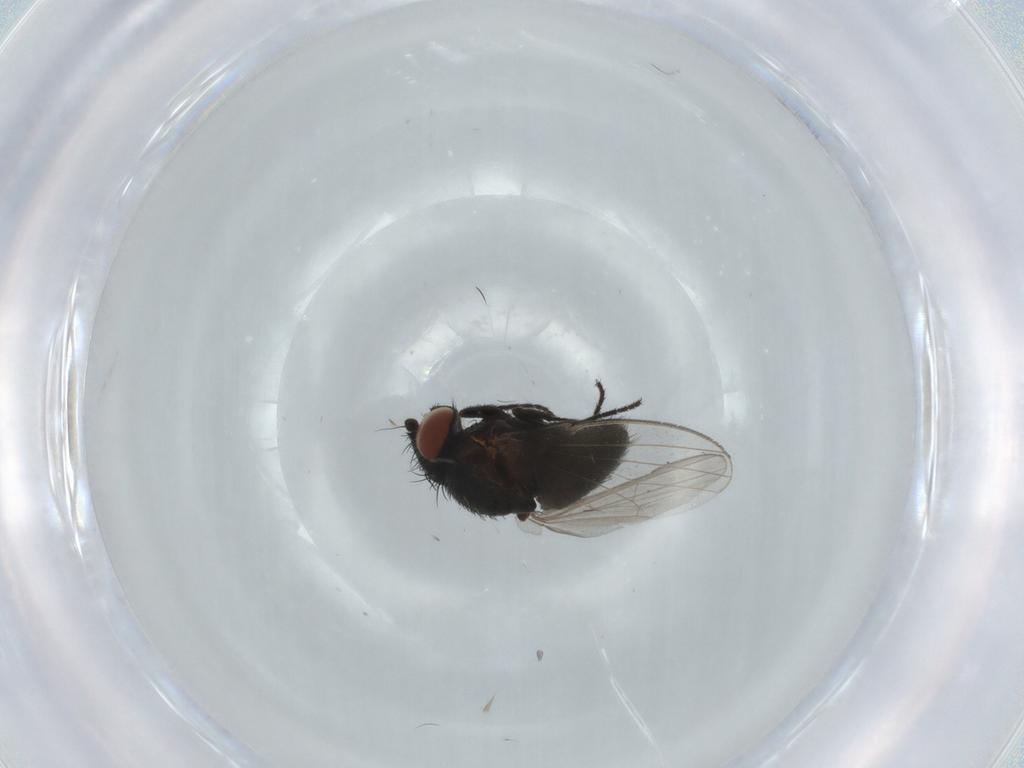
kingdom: Animalia
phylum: Arthropoda
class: Insecta
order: Diptera
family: Milichiidae
